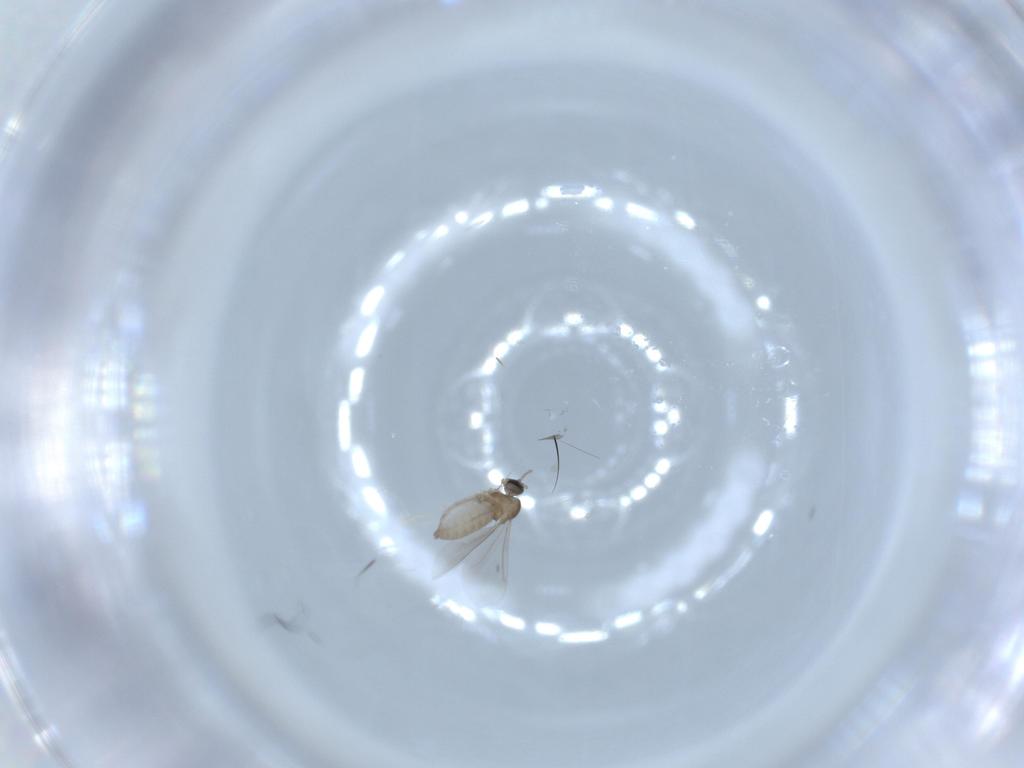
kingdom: Animalia
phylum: Arthropoda
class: Insecta
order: Diptera
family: Cecidomyiidae
